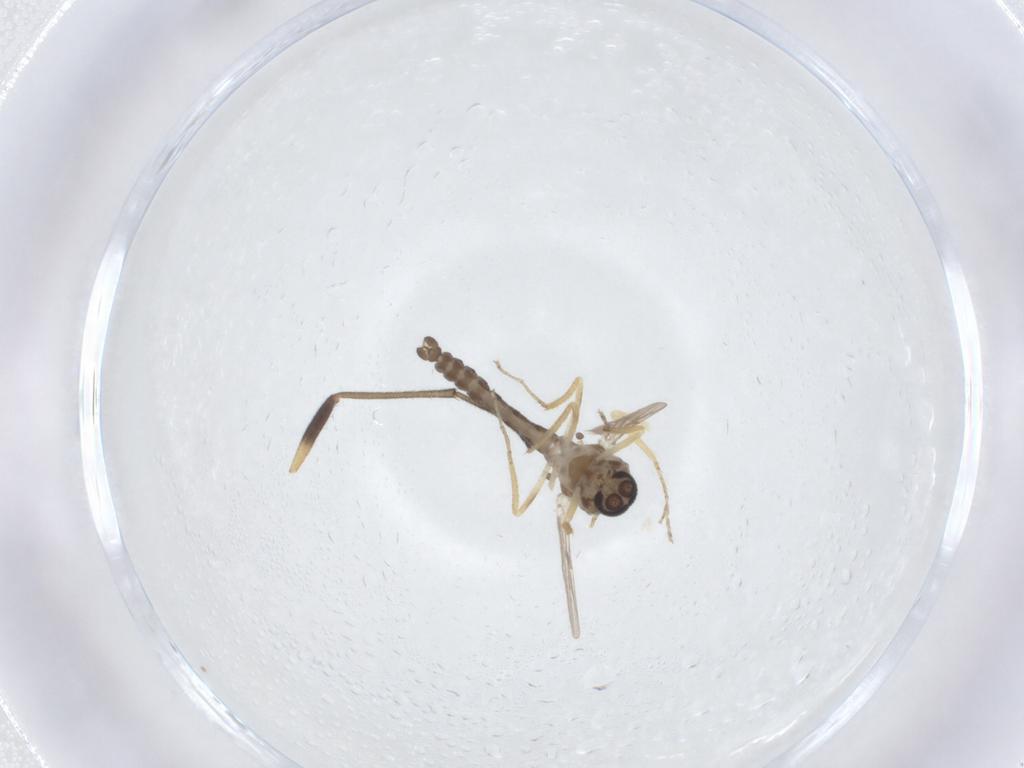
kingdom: Animalia
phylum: Arthropoda
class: Insecta
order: Diptera
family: Ceratopogonidae
